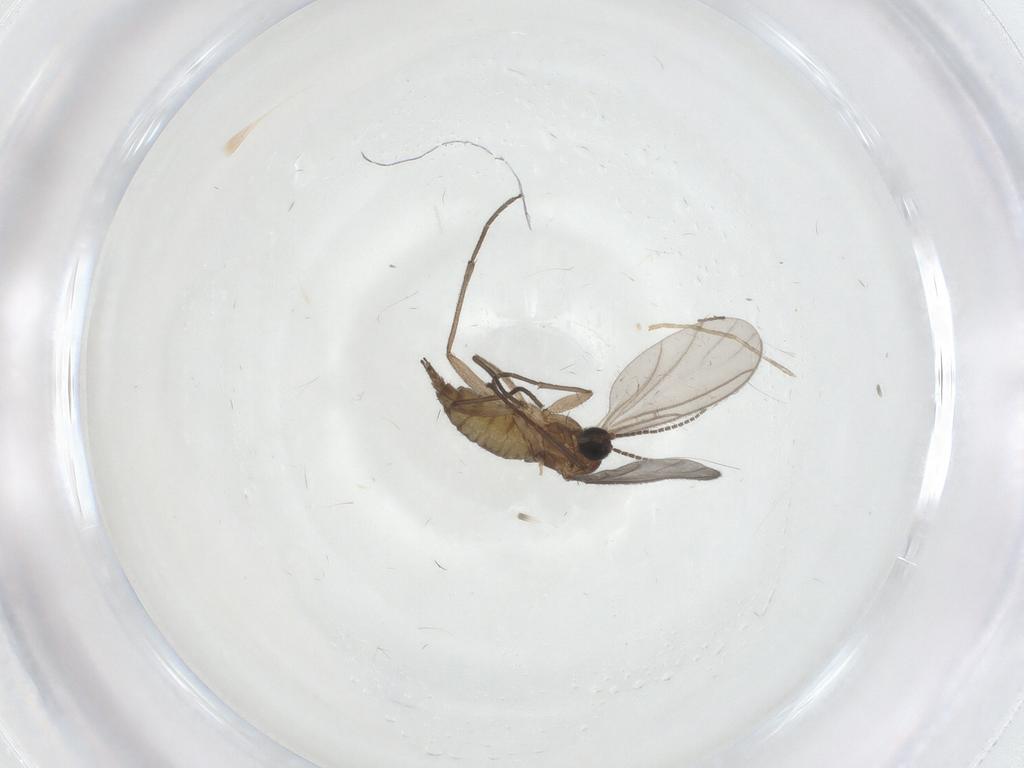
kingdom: Animalia
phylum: Arthropoda
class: Insecta
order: Diptera
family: Sciaridae
